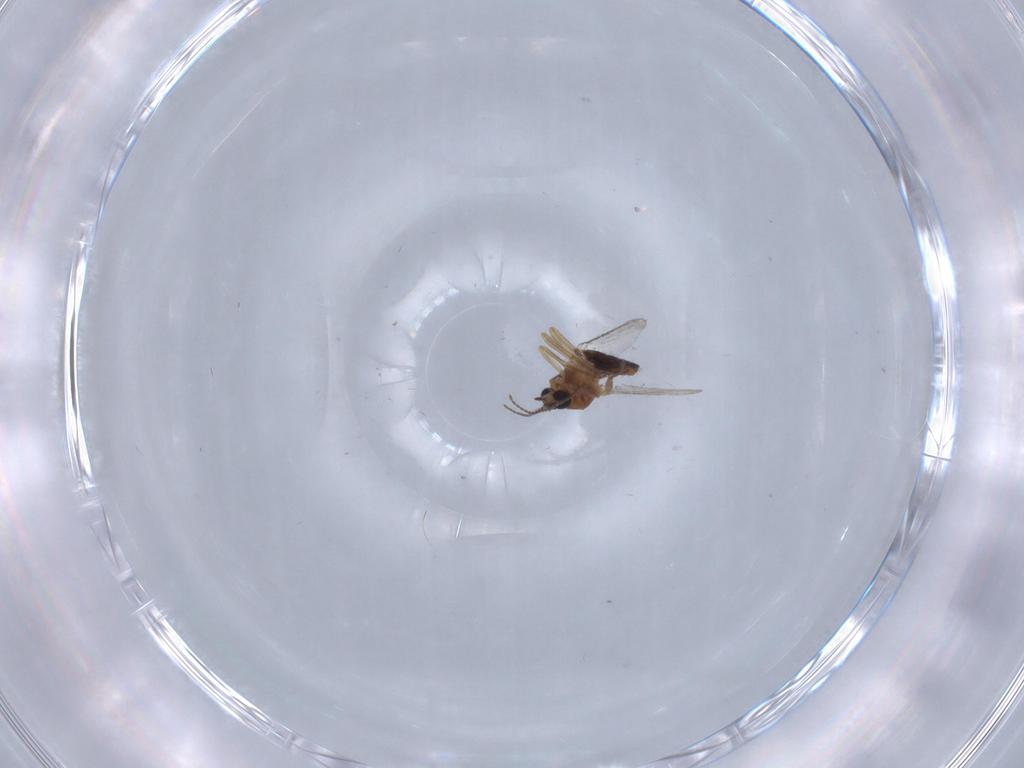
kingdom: Animalia
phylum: Arthropoda
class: Insecta
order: Diptera
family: Ceratopogonidae
